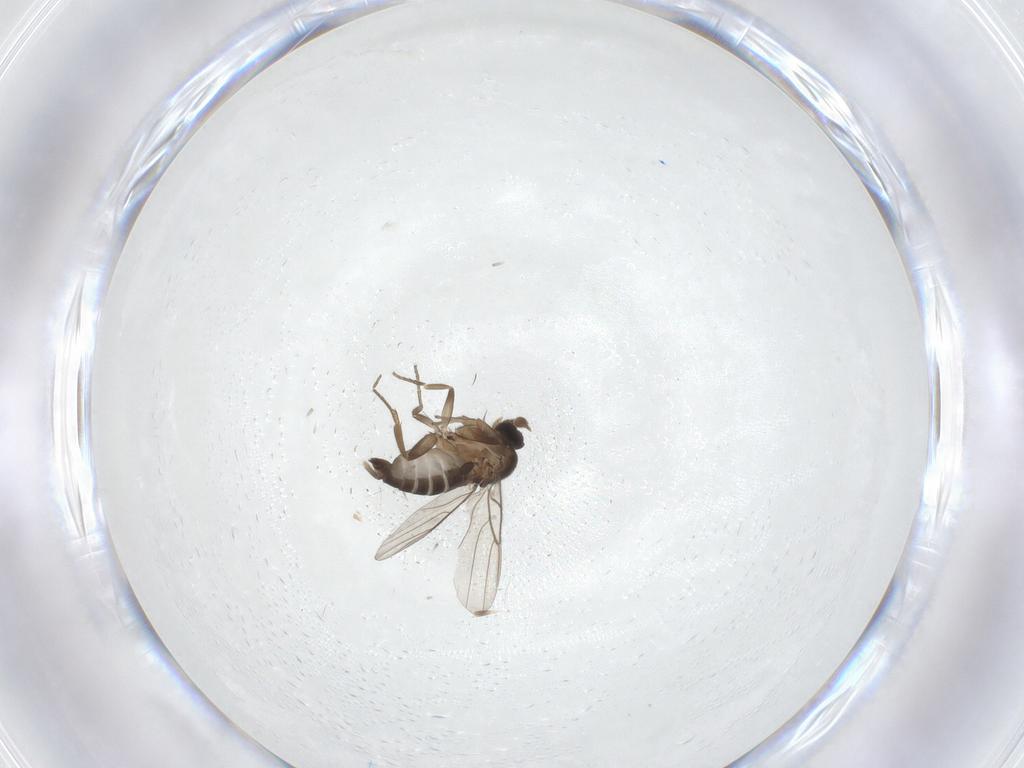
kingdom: Animalia
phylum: Arthropoda
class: Insecta
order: Diptera
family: Phoridae
